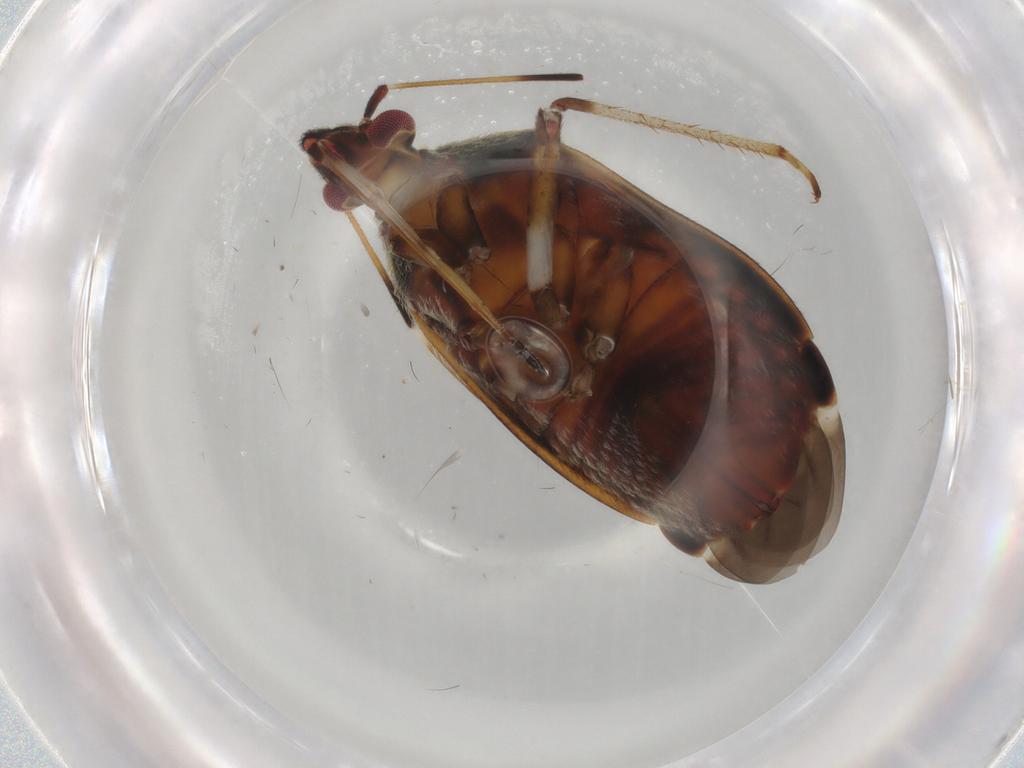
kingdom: Animalia
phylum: Arthropoda
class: Insecta
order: Hemiptera
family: Miridae
